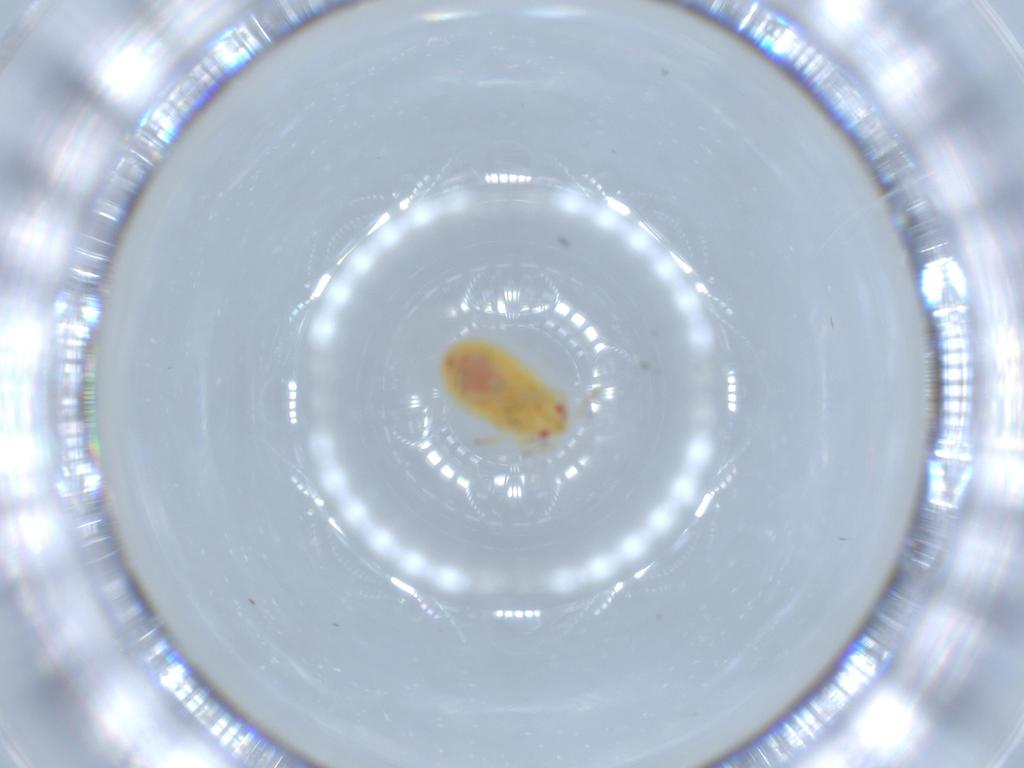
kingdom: Animalia
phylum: Arthropoda
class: Insecta
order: Hemiptera
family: Anthocoridae
